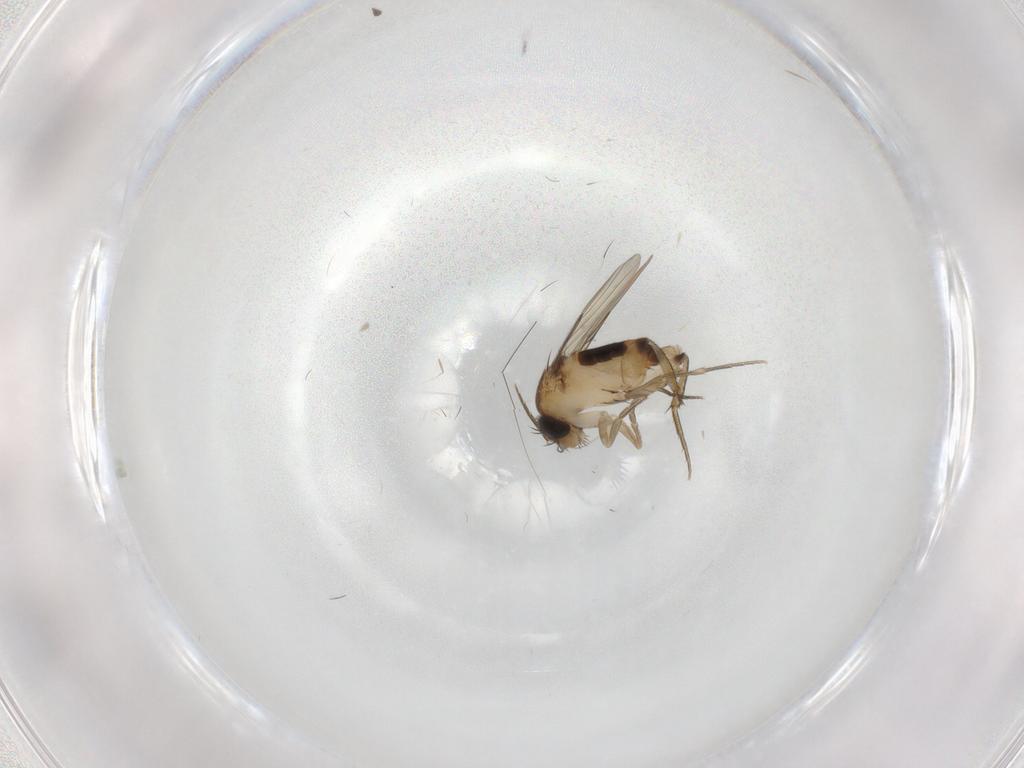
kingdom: Animalia
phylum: Arthropoda
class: Insecta
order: Diptera
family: Phoridae
